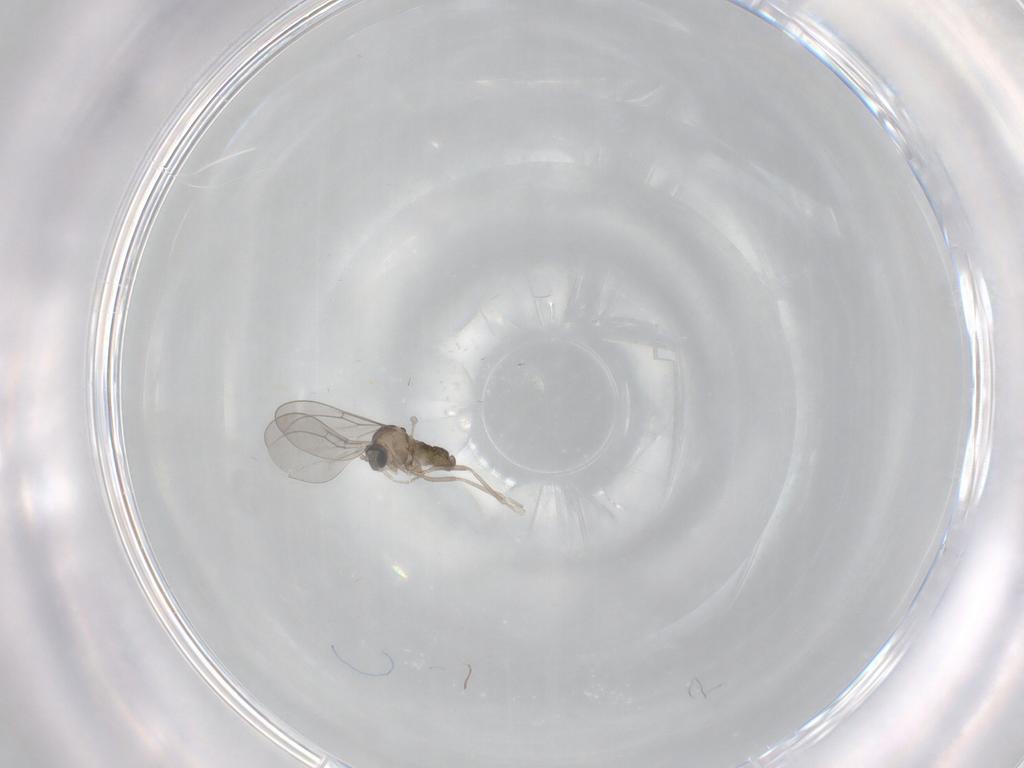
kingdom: Animalia
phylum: Arthropoda
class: Insecta
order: Diptera
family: Cecidomyiidae
